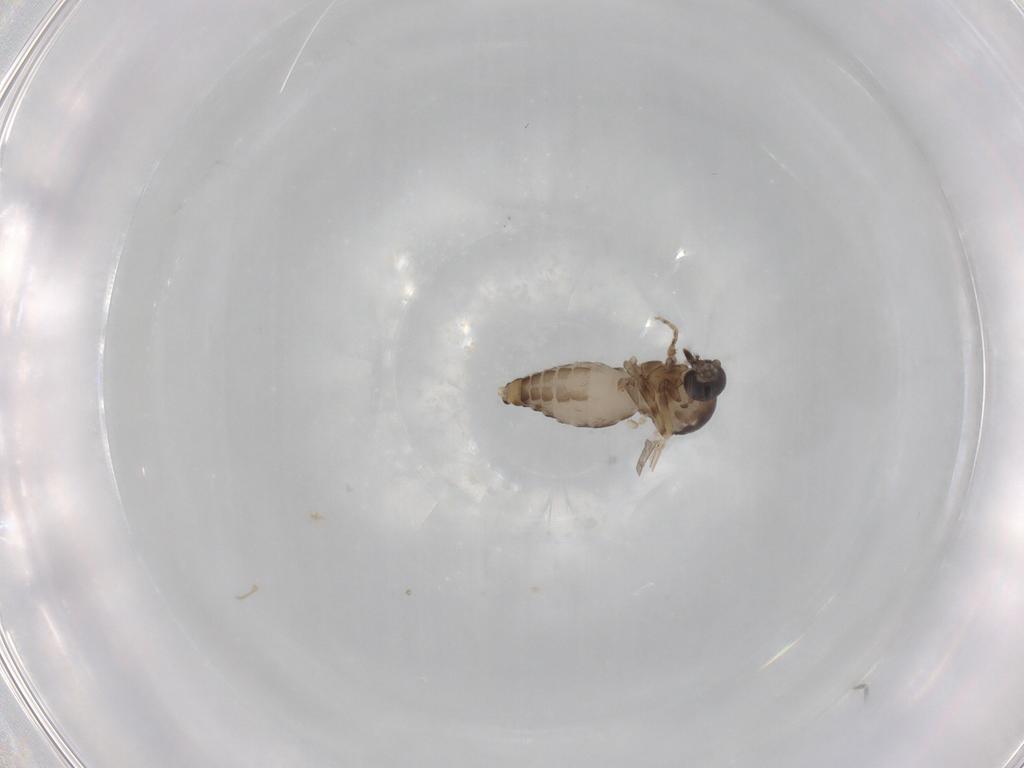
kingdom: Animalia
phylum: Arthropoda
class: Insecta
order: Diptera
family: Ceratopogonidae
